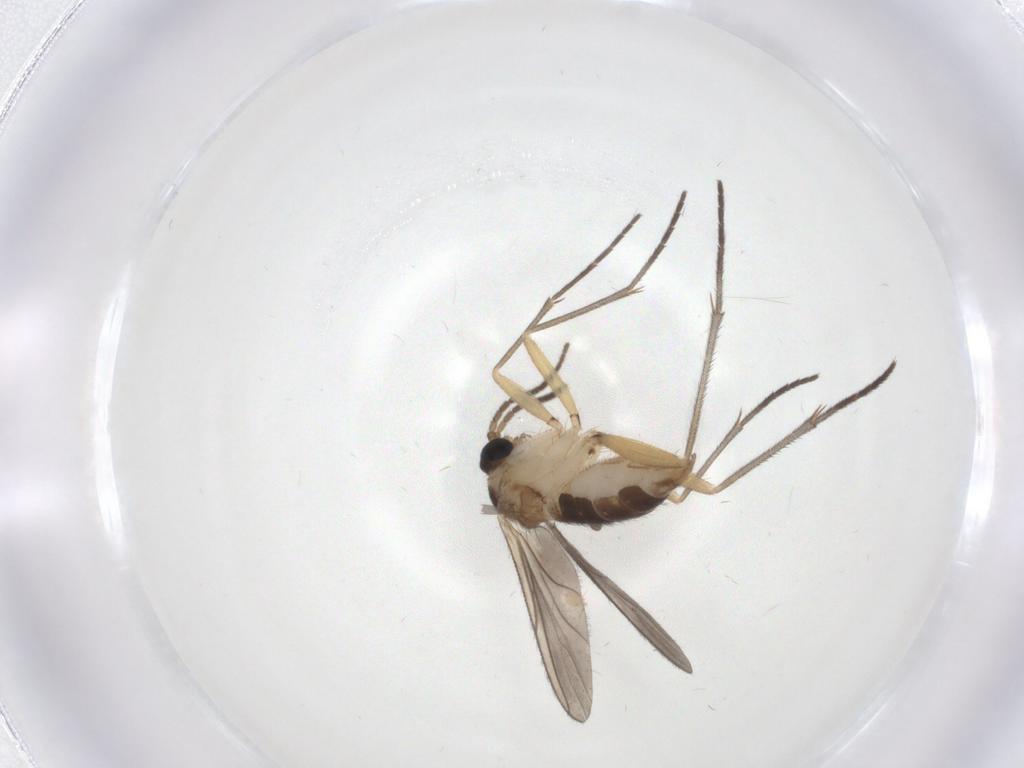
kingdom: Animalia
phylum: Arthropoda
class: Insecta
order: Diptera
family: Sciaridae
